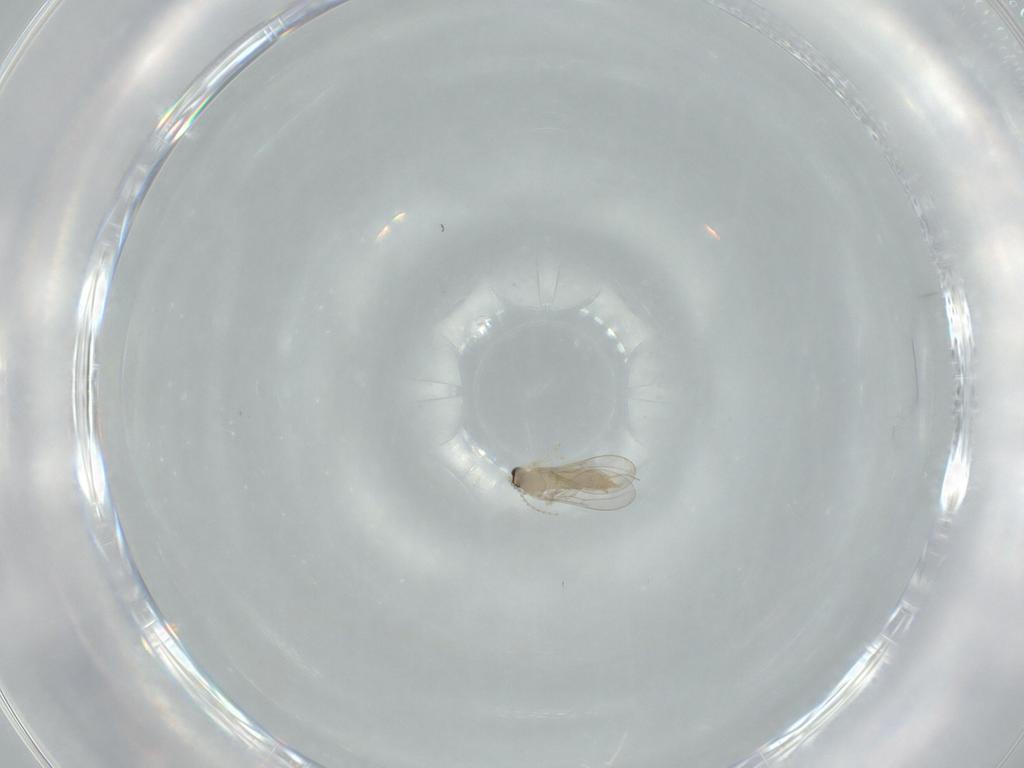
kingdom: Animalia
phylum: Arthropoda
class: Insecta
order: Diptera
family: Cecidomyiidae
